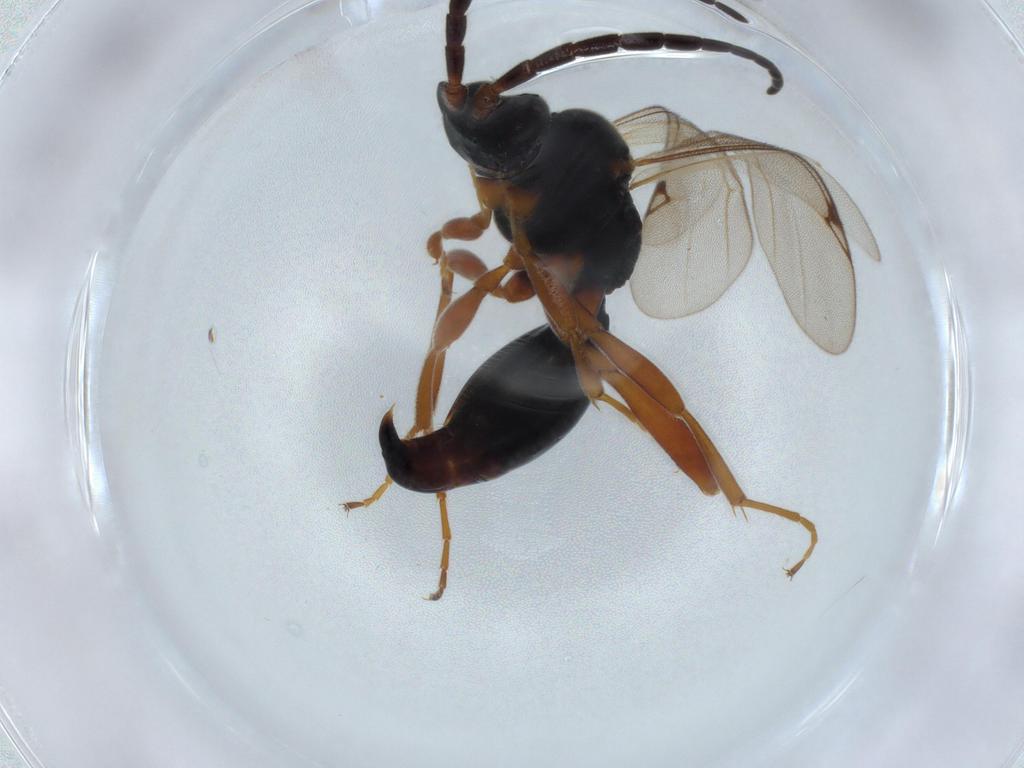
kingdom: Animalia
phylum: Arthropoda
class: Insecta
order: Hymenoptera
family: Proctotrupidae
